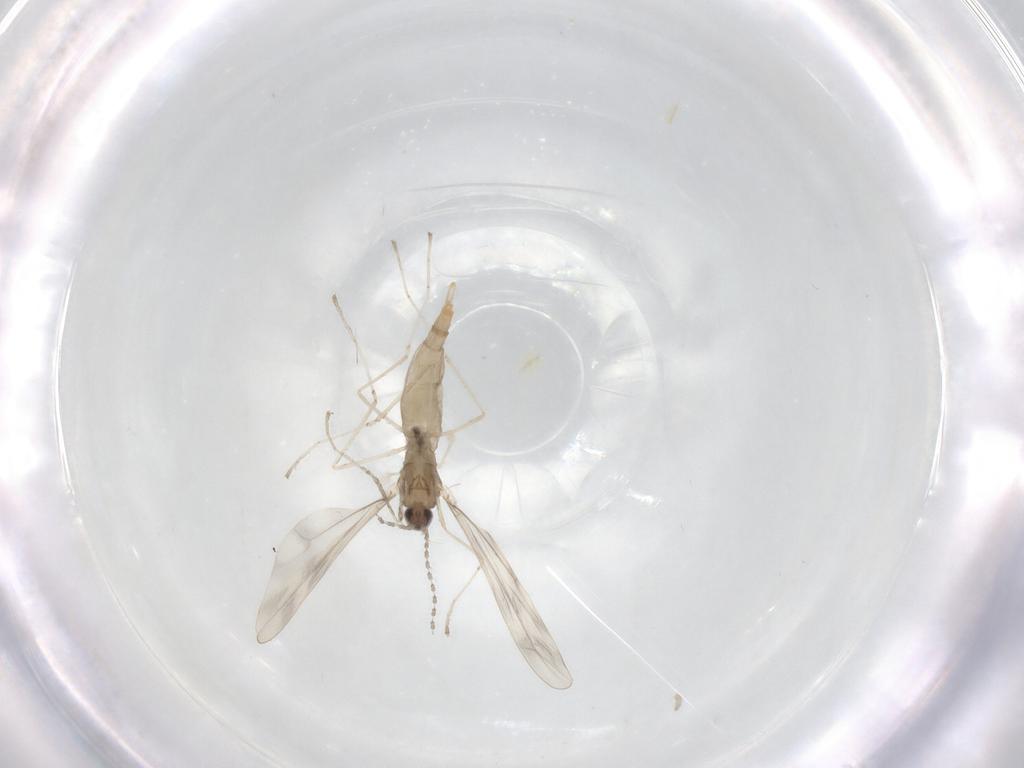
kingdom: Animalia
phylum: Arthropoda
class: Insecta
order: Diptera
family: Cecidomyiidae
